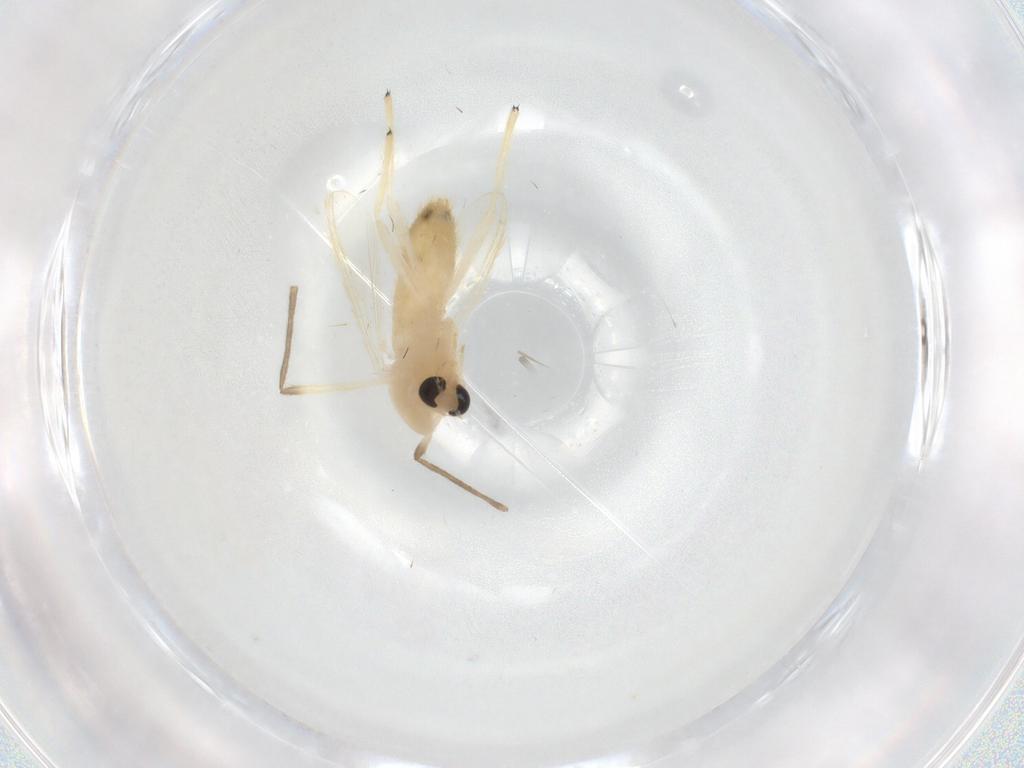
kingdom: Animalia
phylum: Arthropoda
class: Insecta
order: Diptera
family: Chironomidae
